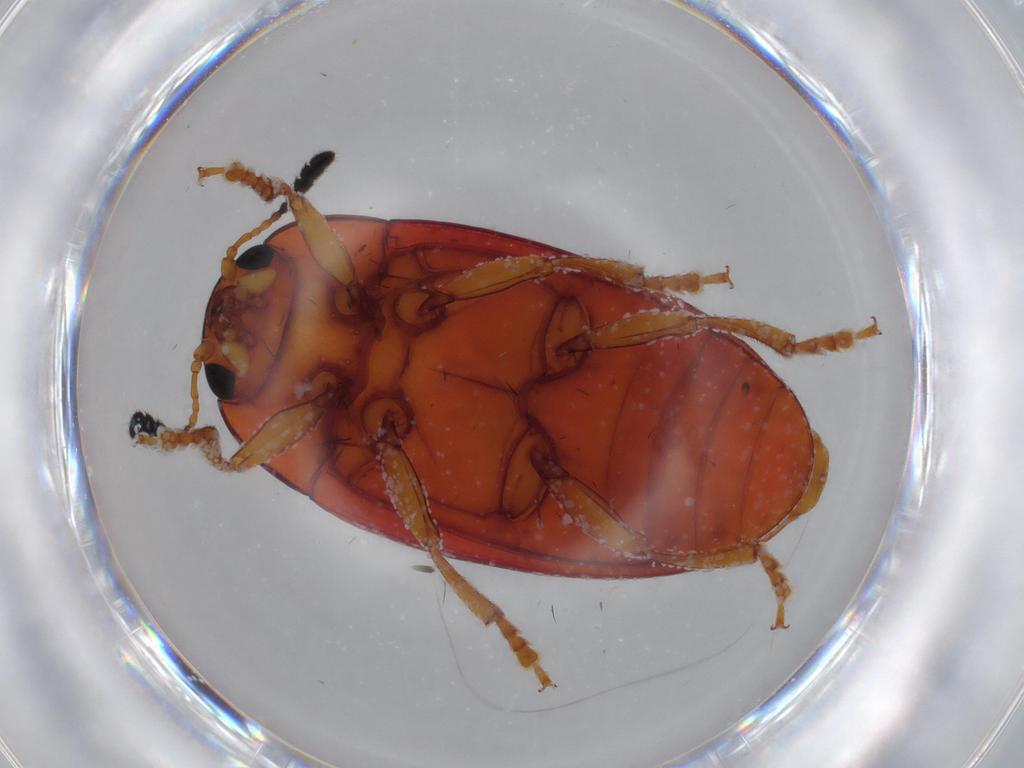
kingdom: Animalia
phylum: Arthropoda
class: Insecta
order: Coleoptera
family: Erotylidae
